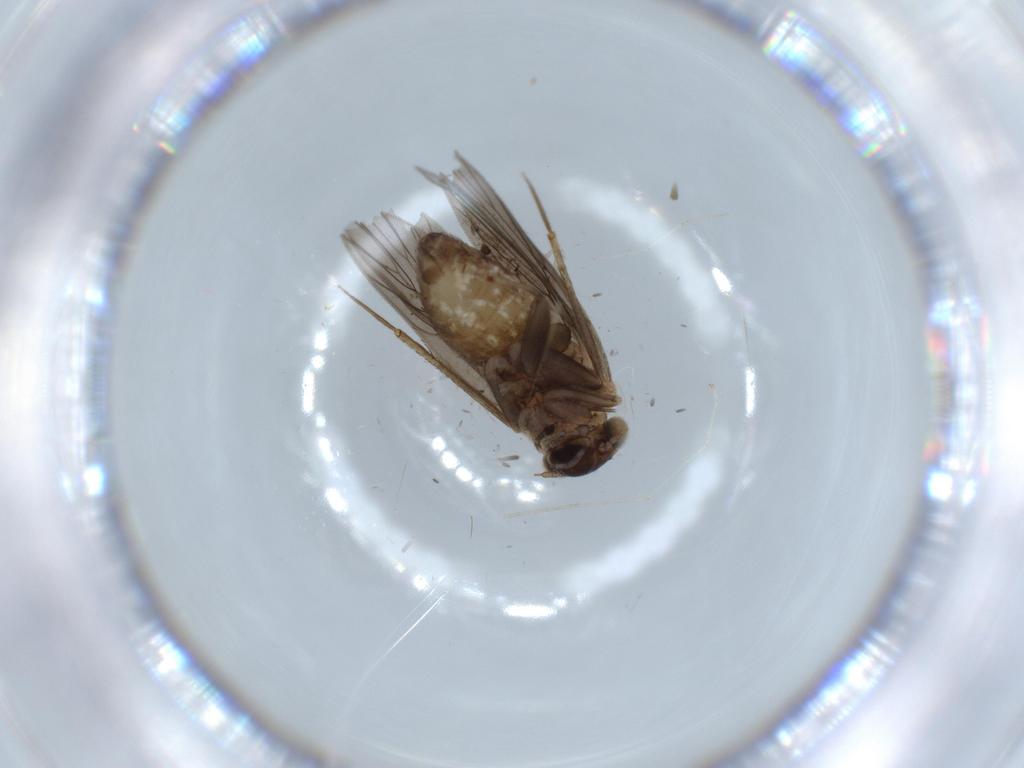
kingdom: Animalia
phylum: Arthropoda
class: Insecta
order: Psocodea
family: Lepidopsocidae
